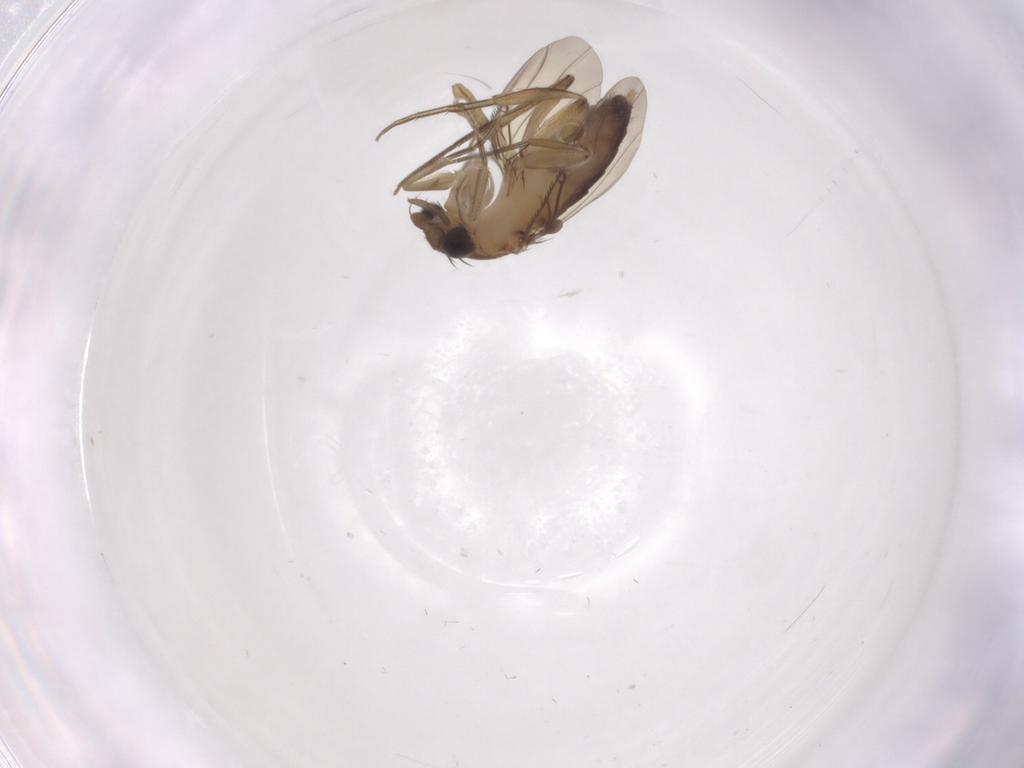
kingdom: Animalia
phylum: Arthropoda
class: Insecta
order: Diptera
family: Phoridae
